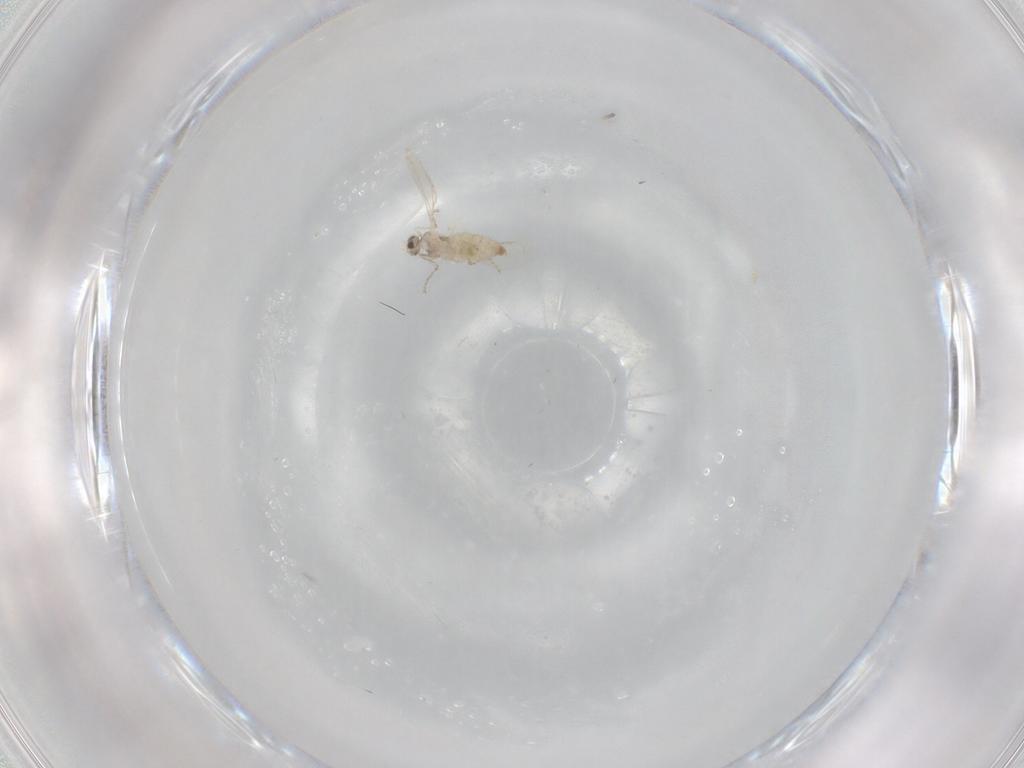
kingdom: Animalia
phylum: Arthropoda
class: Insecta
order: Diptera
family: Cecidomyiidae
